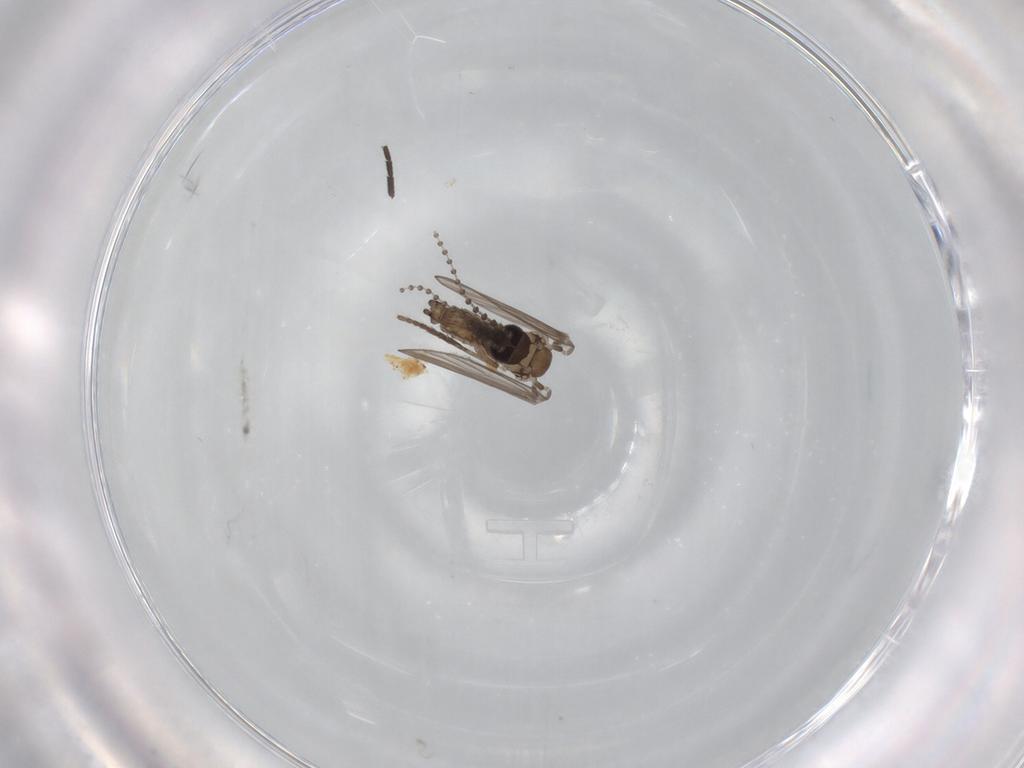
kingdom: Animalia
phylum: Arthropoda
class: Insecta
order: Diptera
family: Psychodidae
